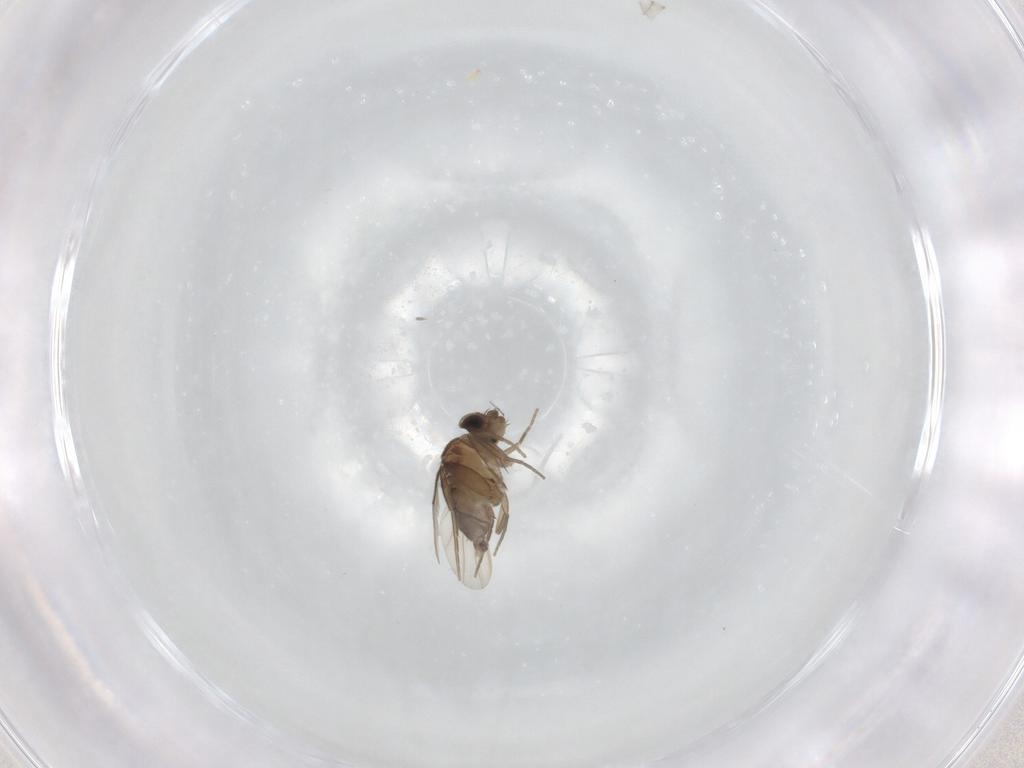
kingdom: Animalia
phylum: Arthropoda
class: Insecta
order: Diptera
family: Phoridae
